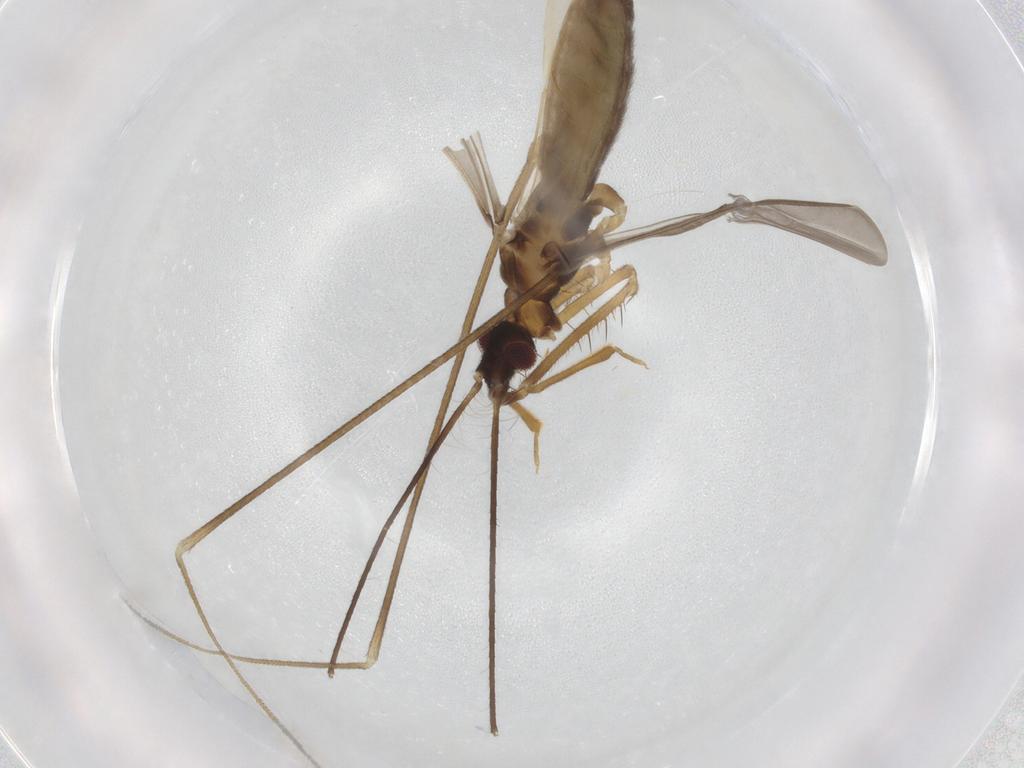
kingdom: Animalia
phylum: Arthropoda
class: Insecta
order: Hemiptera
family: Reduviidae
